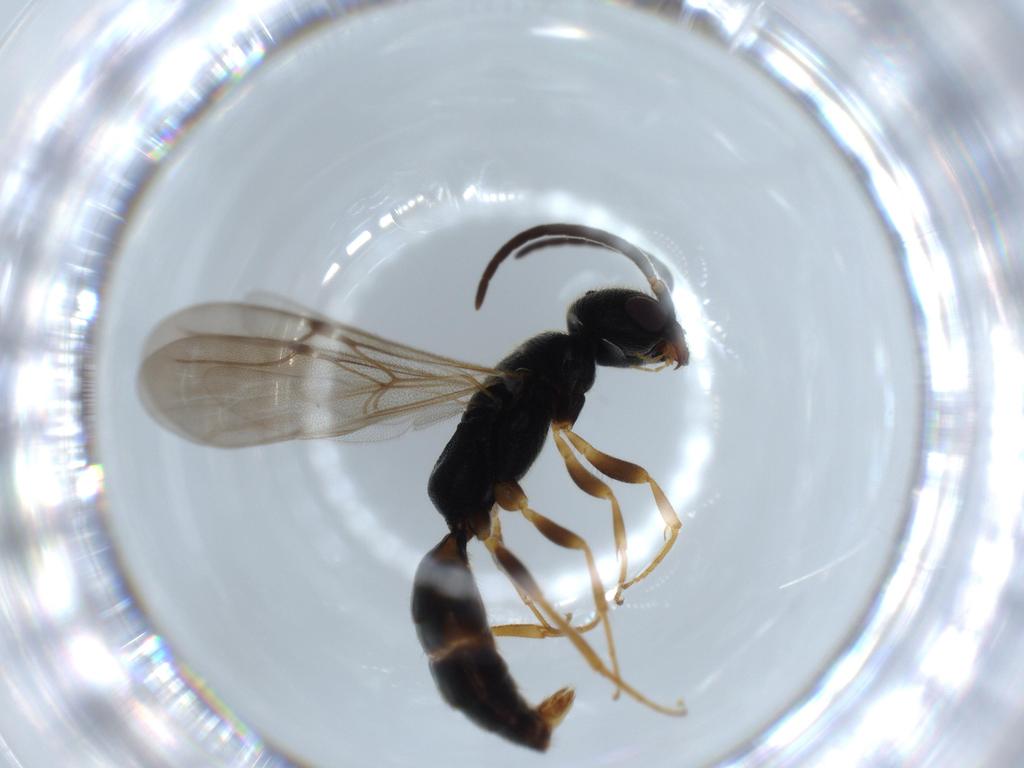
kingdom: Animalia
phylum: Arthropoda
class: Insecta
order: Hymenoptera
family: Bethylidae
